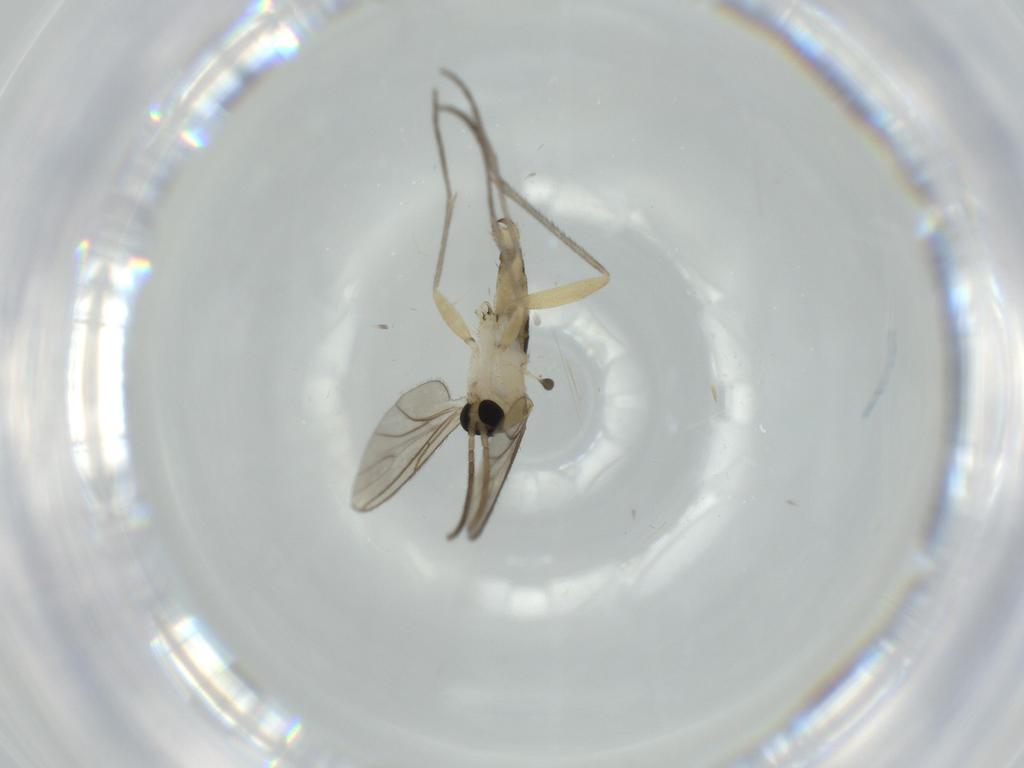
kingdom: Animalia
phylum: Arthropoda
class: Insecta
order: Diptera
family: Sciaridae
